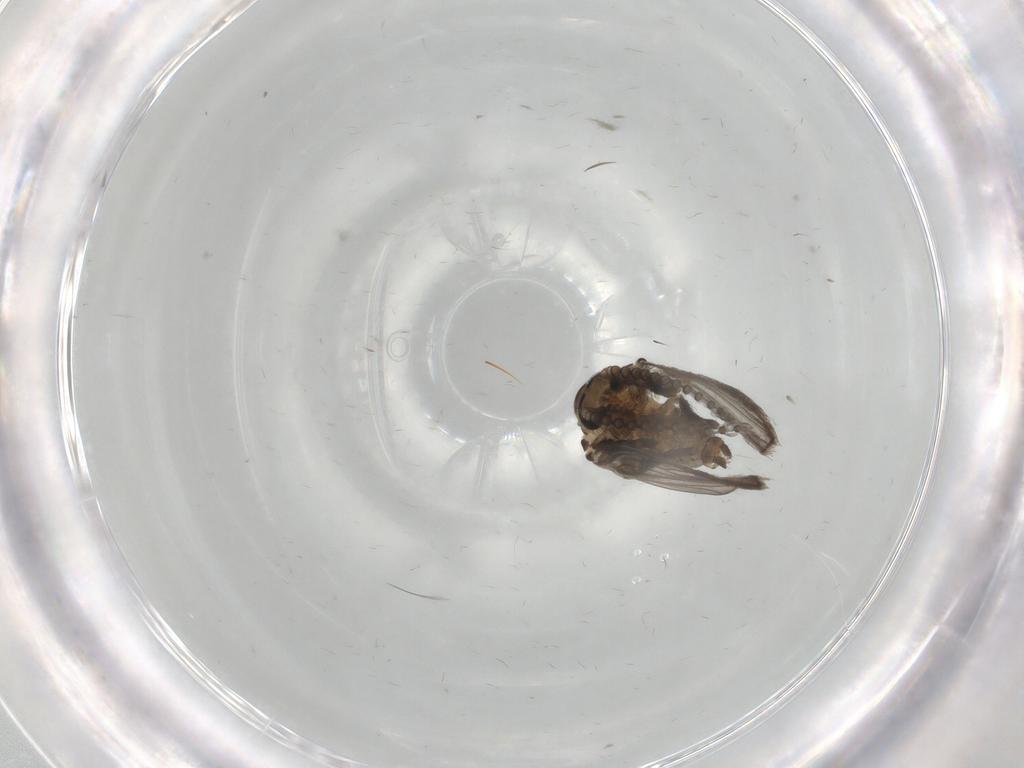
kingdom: Animalia
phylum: Arthropoda
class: Insecta
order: Diptera
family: Psychodidae
